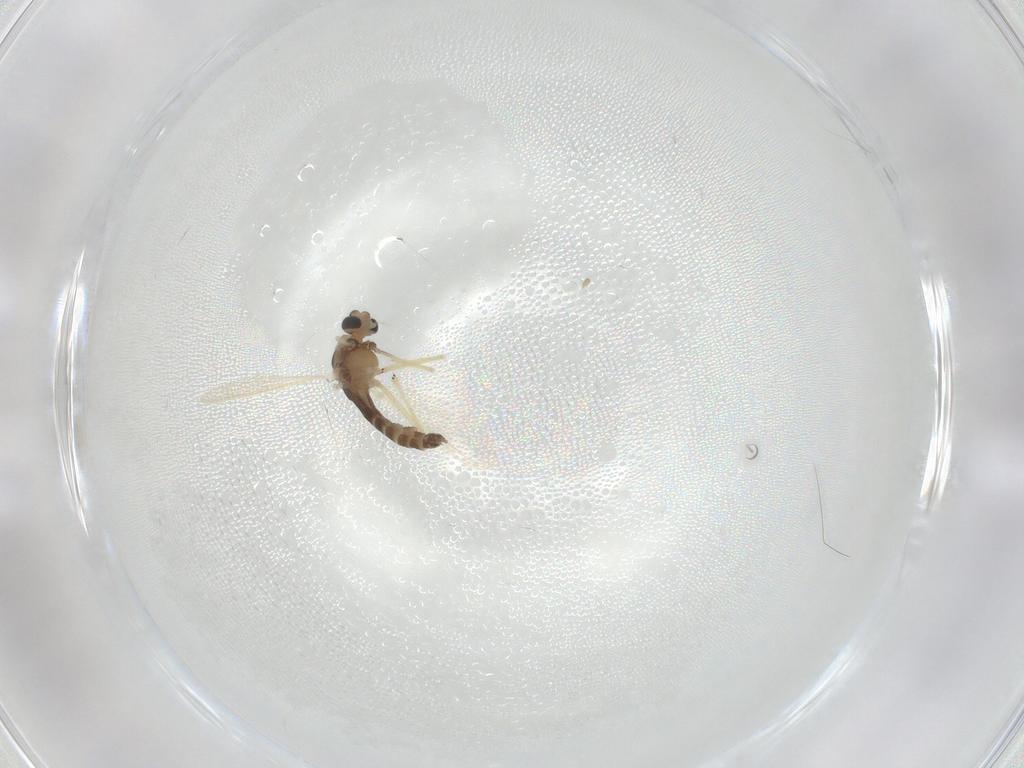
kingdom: Animalia
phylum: Arthropoda
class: Insecta
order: Diptera
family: Chironomidae
